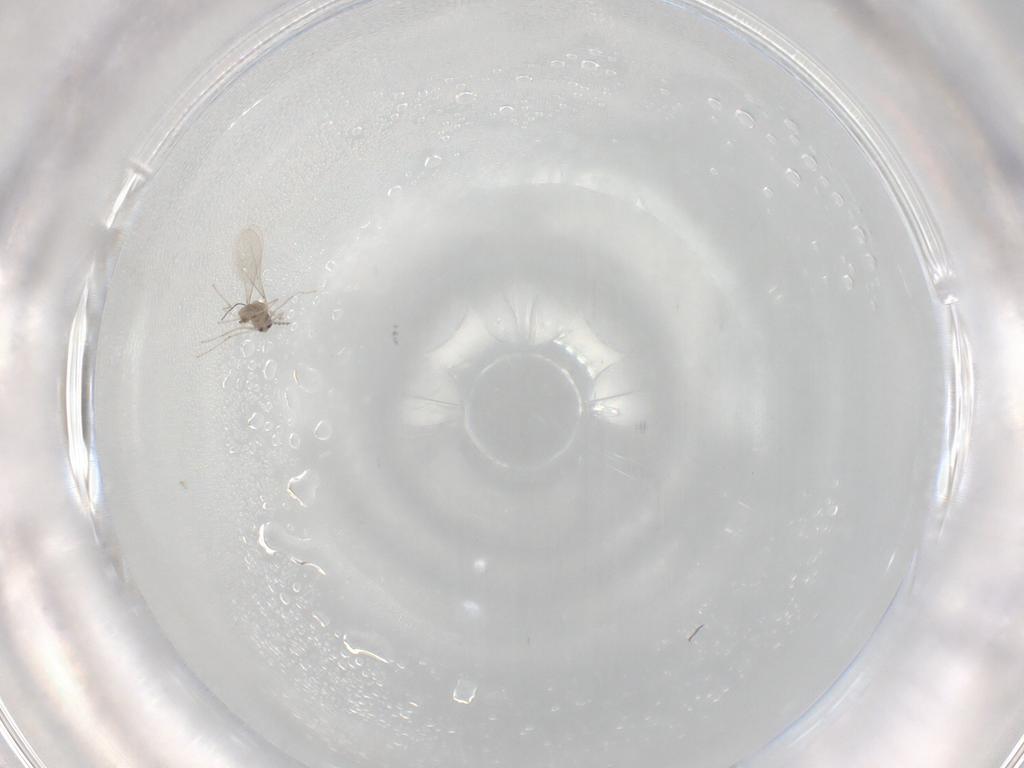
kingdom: Animalia
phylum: Arthropoda
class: Insecta
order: Diptera
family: Cecidomyiidae
